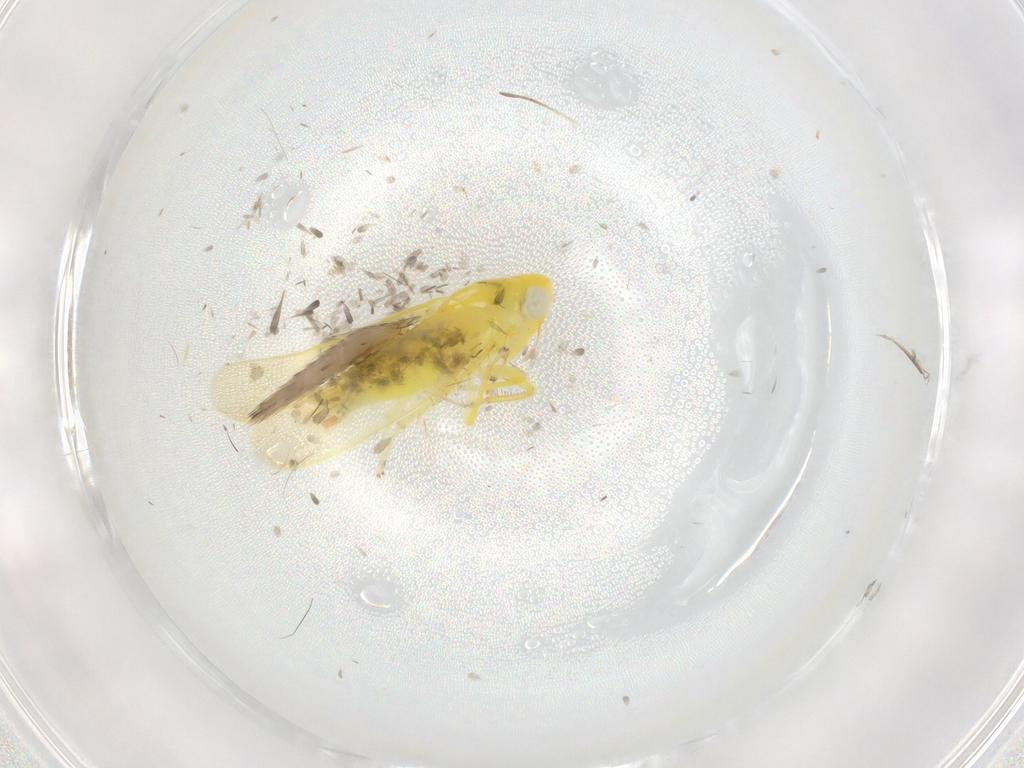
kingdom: Animalia
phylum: Arthropoda
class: Insecta
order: Hemiptera
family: Cicadellidae
